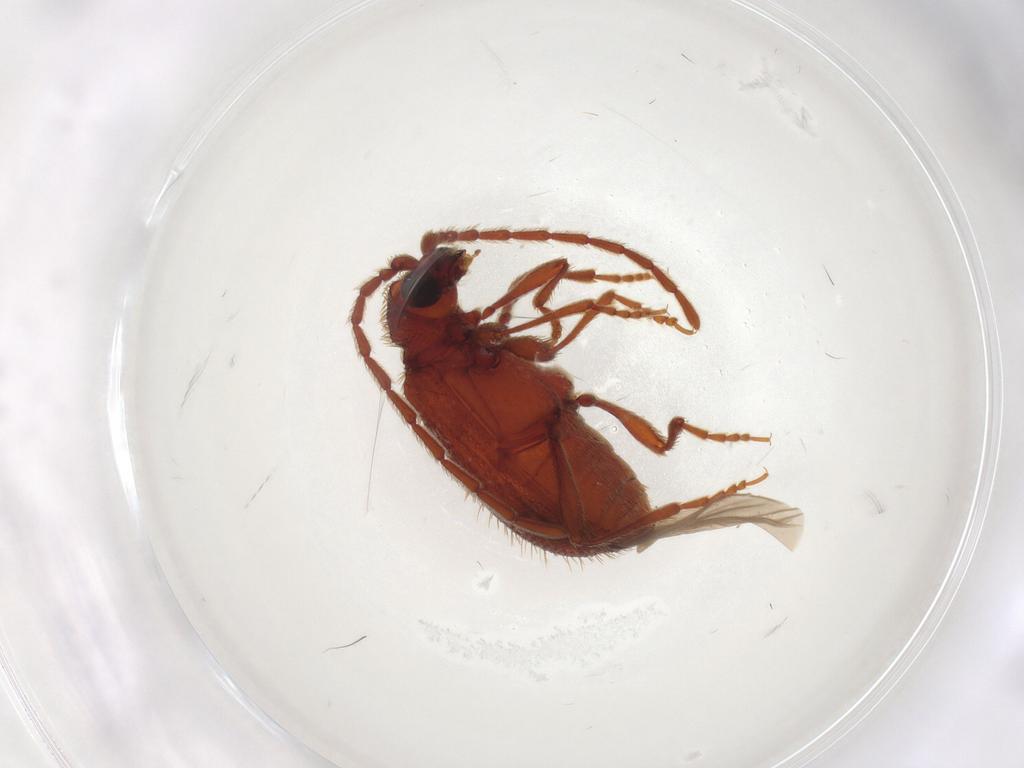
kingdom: Animalia
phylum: Arthropoda
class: Insecta
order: Coleoptera
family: Ptinidae
